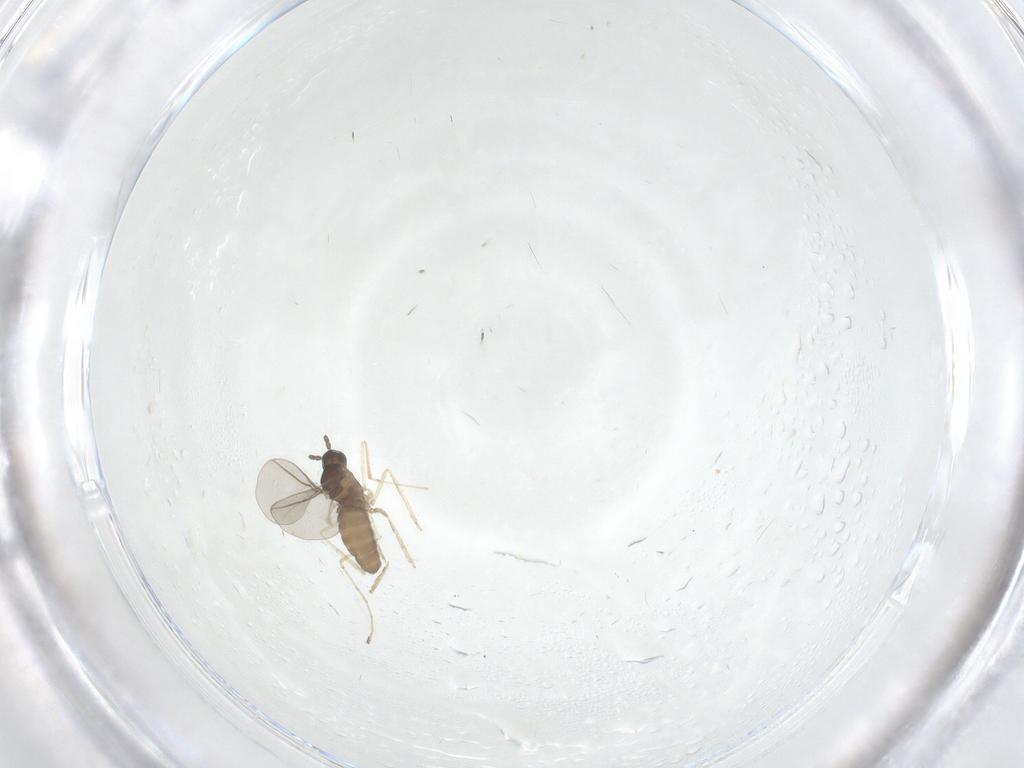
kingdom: Animalia
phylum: Arthropoda
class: Insecta
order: Diptera
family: Cecidomyiidae
